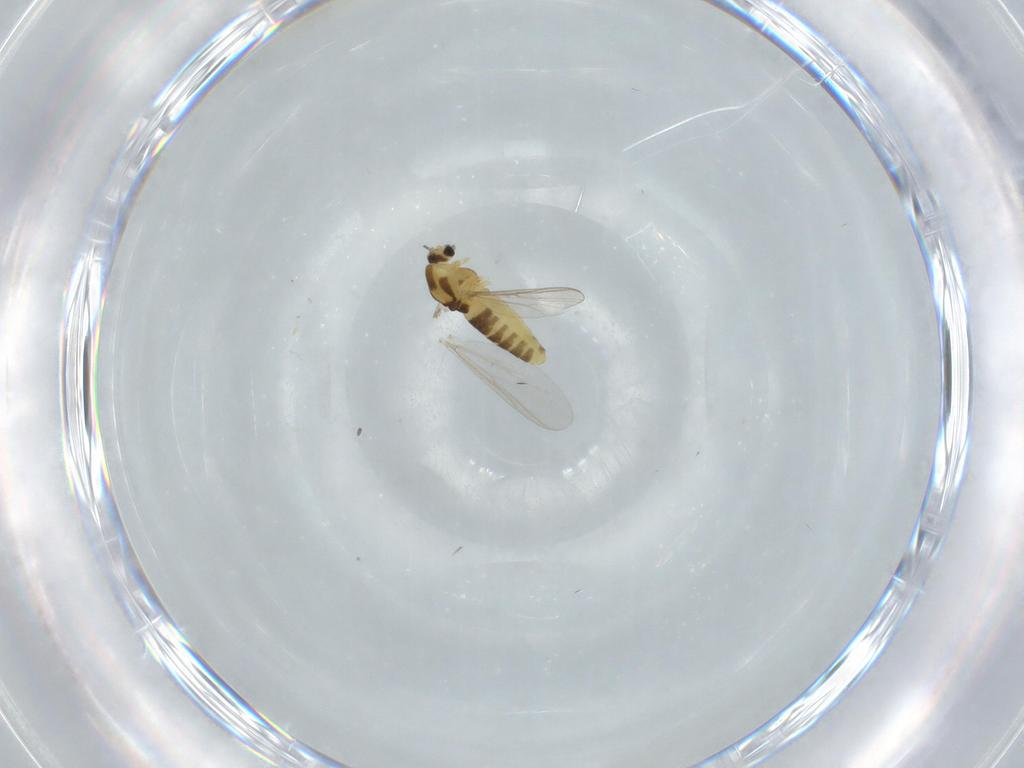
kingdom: Animalia
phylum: Arthropoda
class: Insecta
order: Diptera
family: Chironomidae
